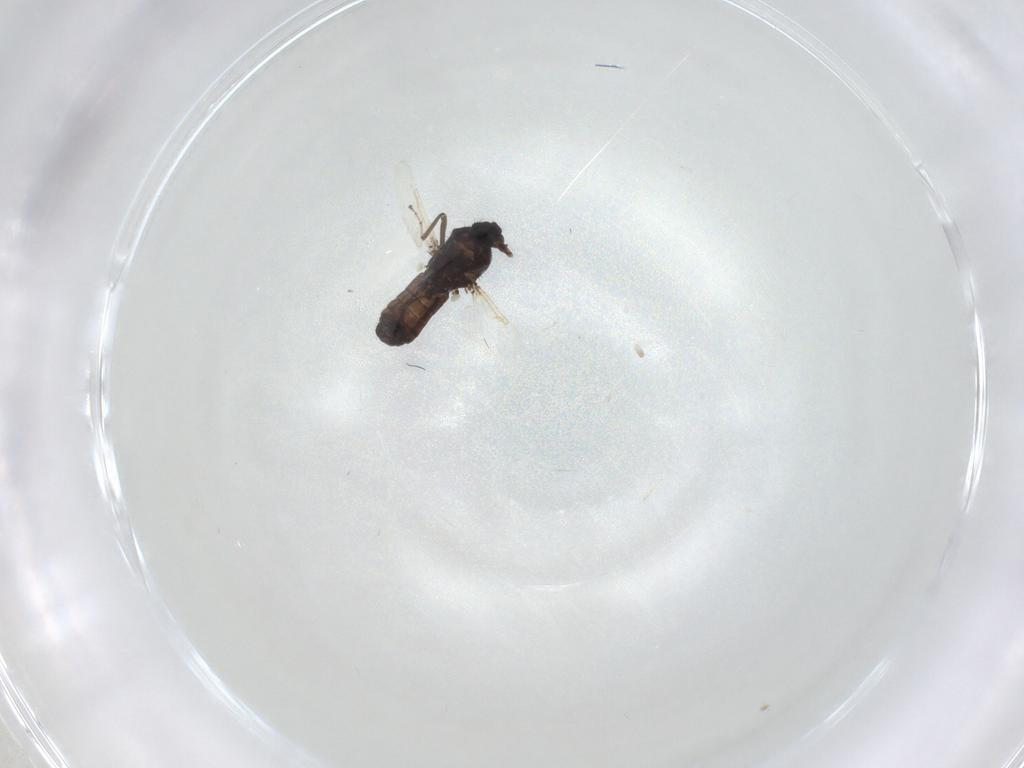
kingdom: Animalia
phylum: Arthropoda
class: Insecta
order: Diptera
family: Ceratopogonidae
